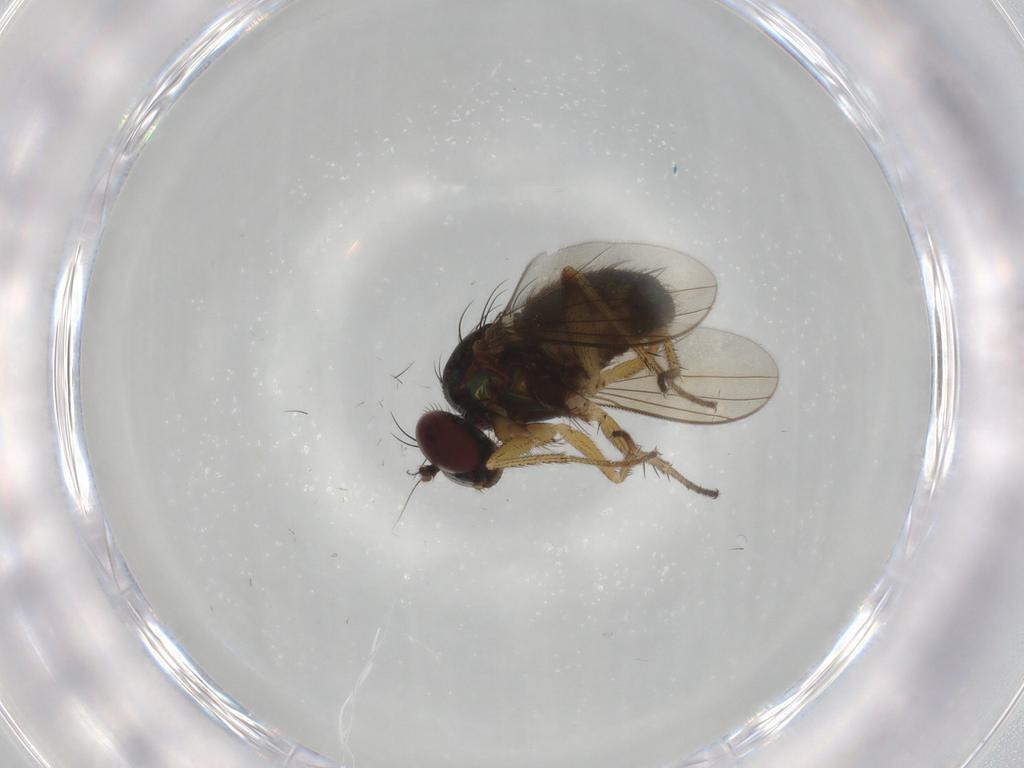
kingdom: Animalia
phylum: Arthropoda
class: Insecta
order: Diptera
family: Dolichopodidae
